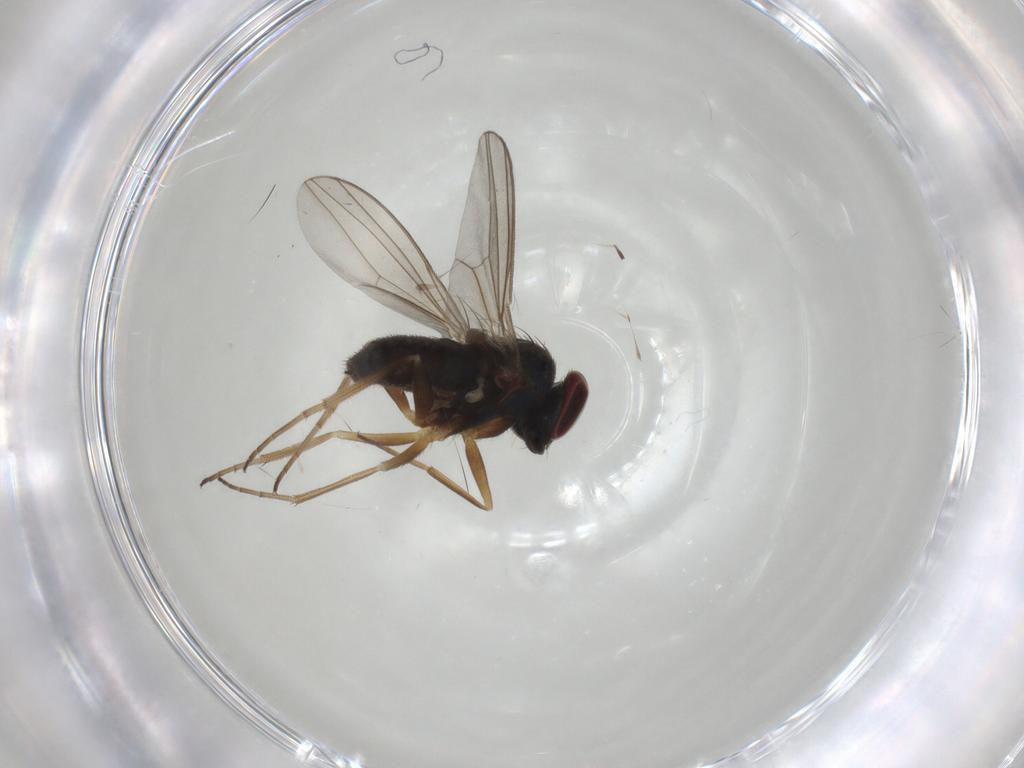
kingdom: Animalia
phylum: Arthropoda
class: Insecta
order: Diptera
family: Dolichopodidae
